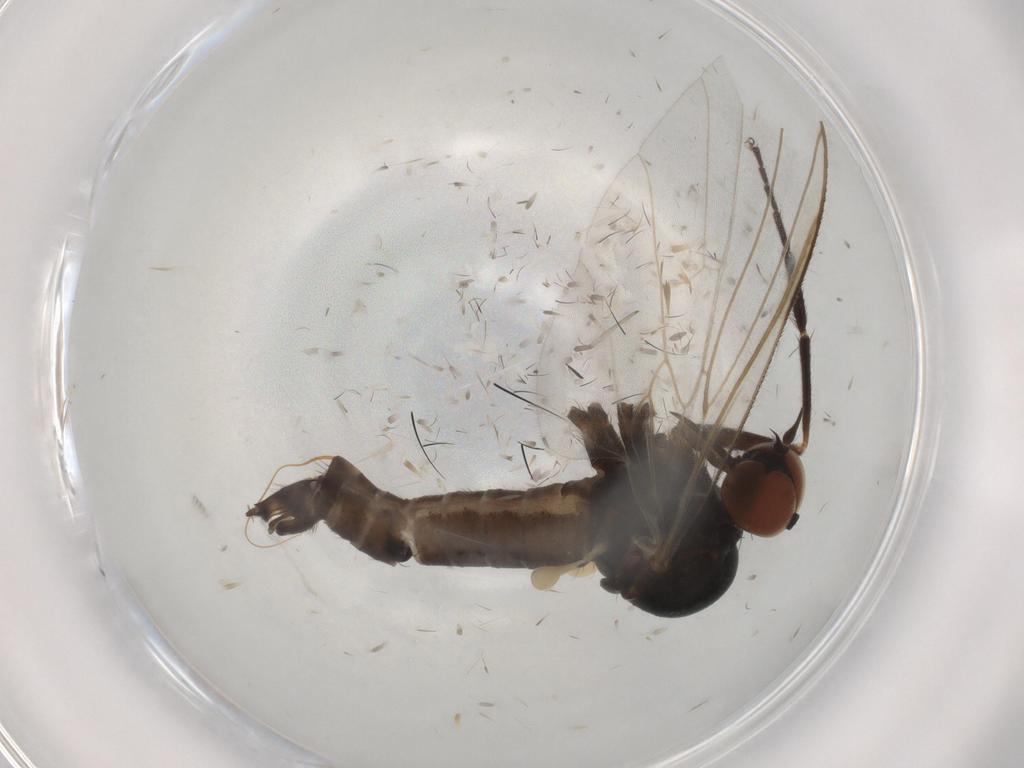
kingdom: Animalia
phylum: Arthropoda
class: Insecta
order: Diptera
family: Empididae
